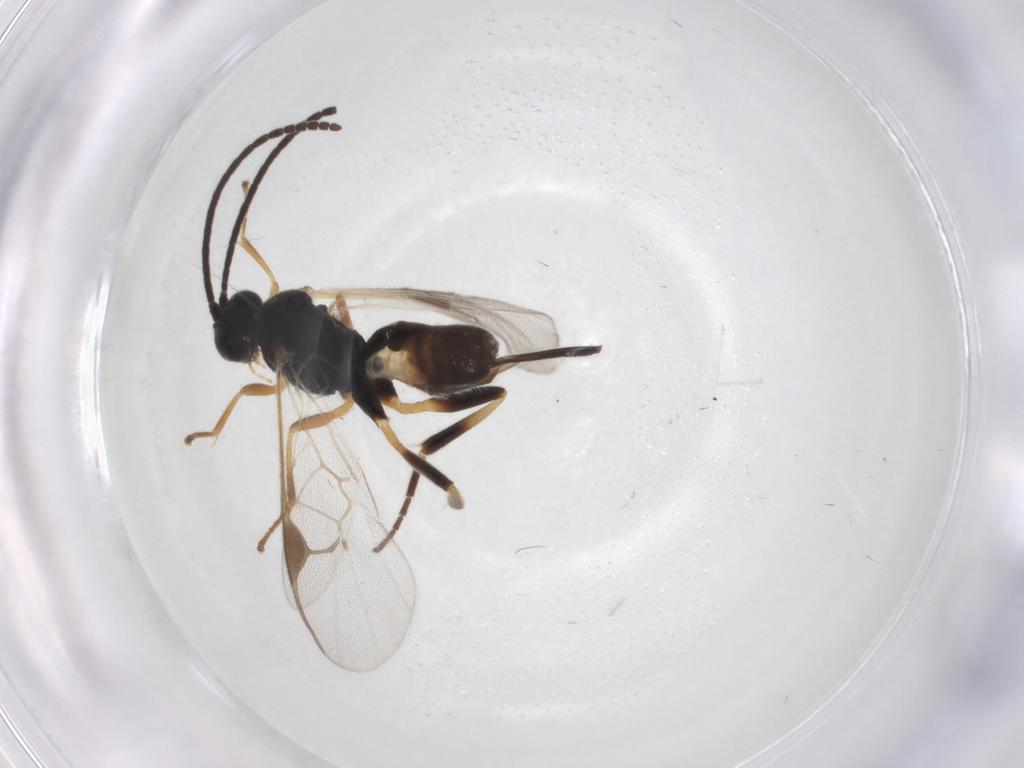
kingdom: Animalia
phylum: Arthropoda
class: Insecta
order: Hymenoptera
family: Braconidae
